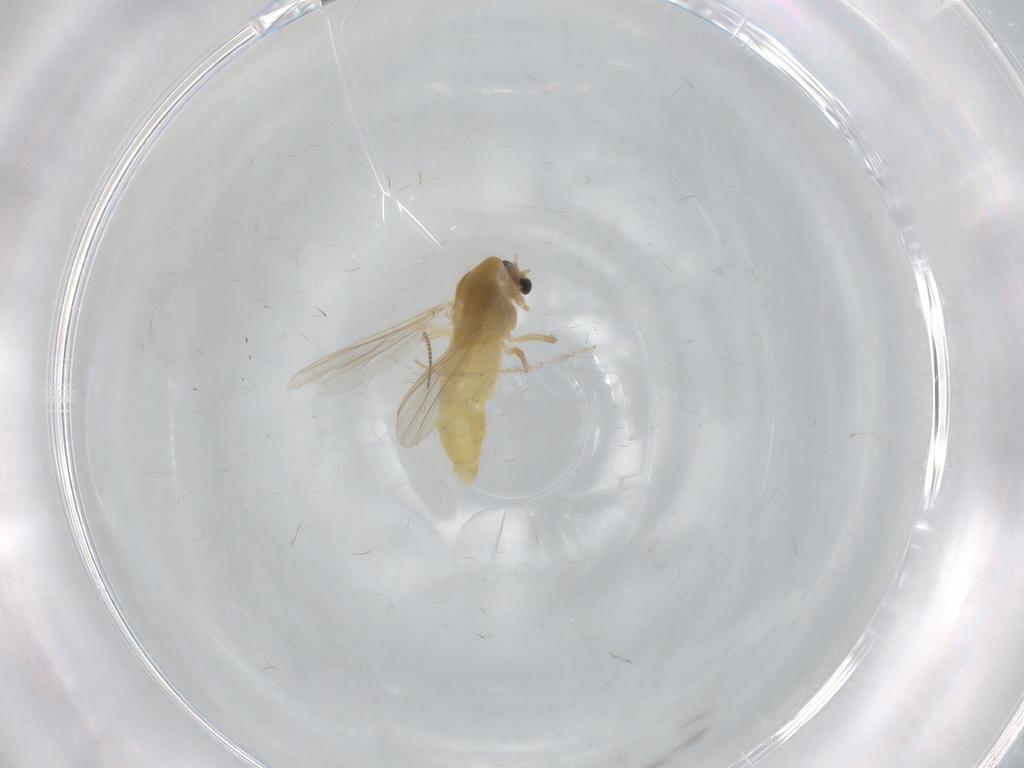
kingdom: Animalia
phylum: Arthropoda
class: Insecta
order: Diptera
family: Chironomidae
